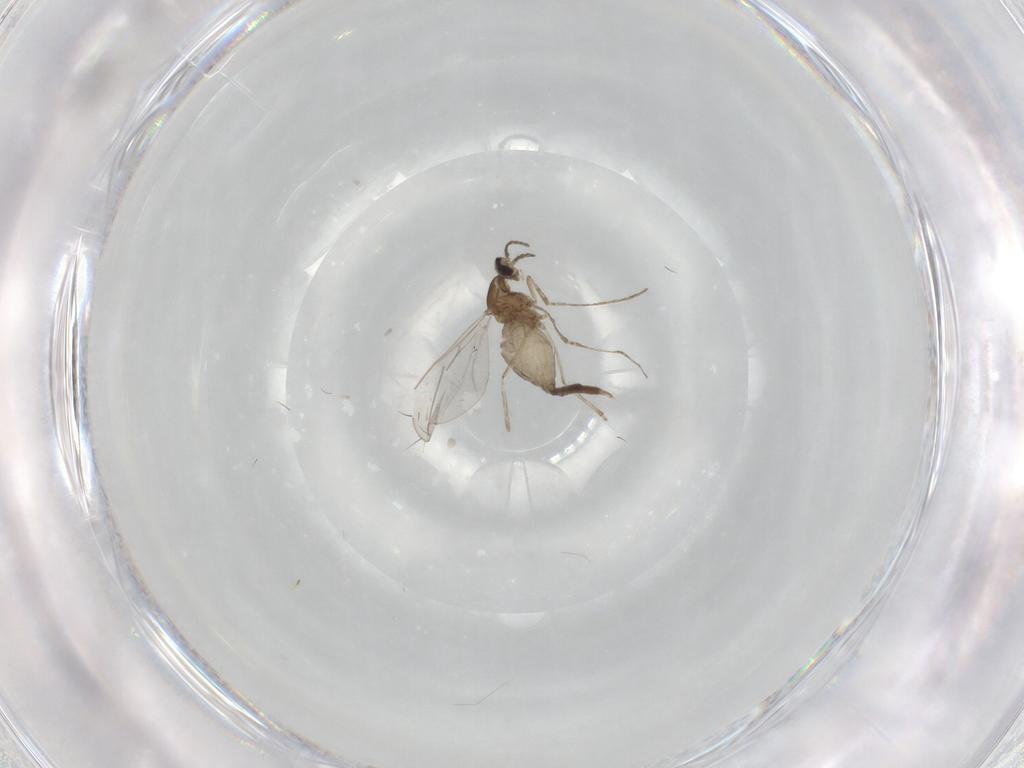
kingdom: Animalia
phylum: Arthropoda
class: Insecta
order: Diptera
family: Cecidomyiidae
